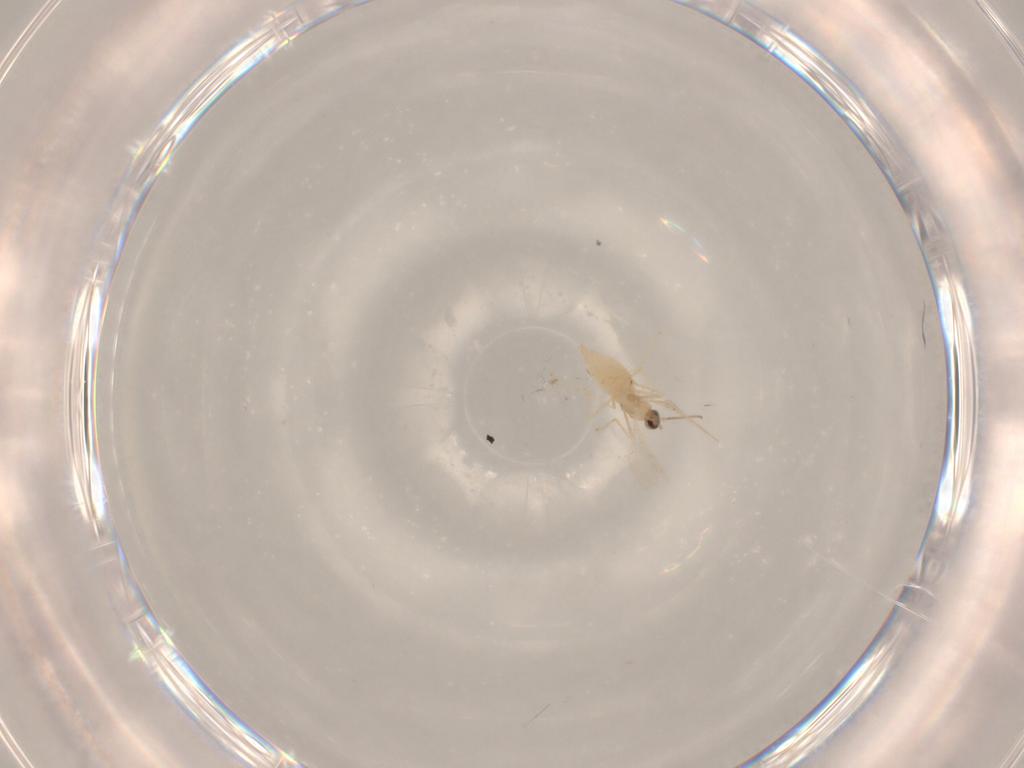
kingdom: Animalia
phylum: Arthropoda
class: Insecta
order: Diptera
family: Cecidomyiidae
